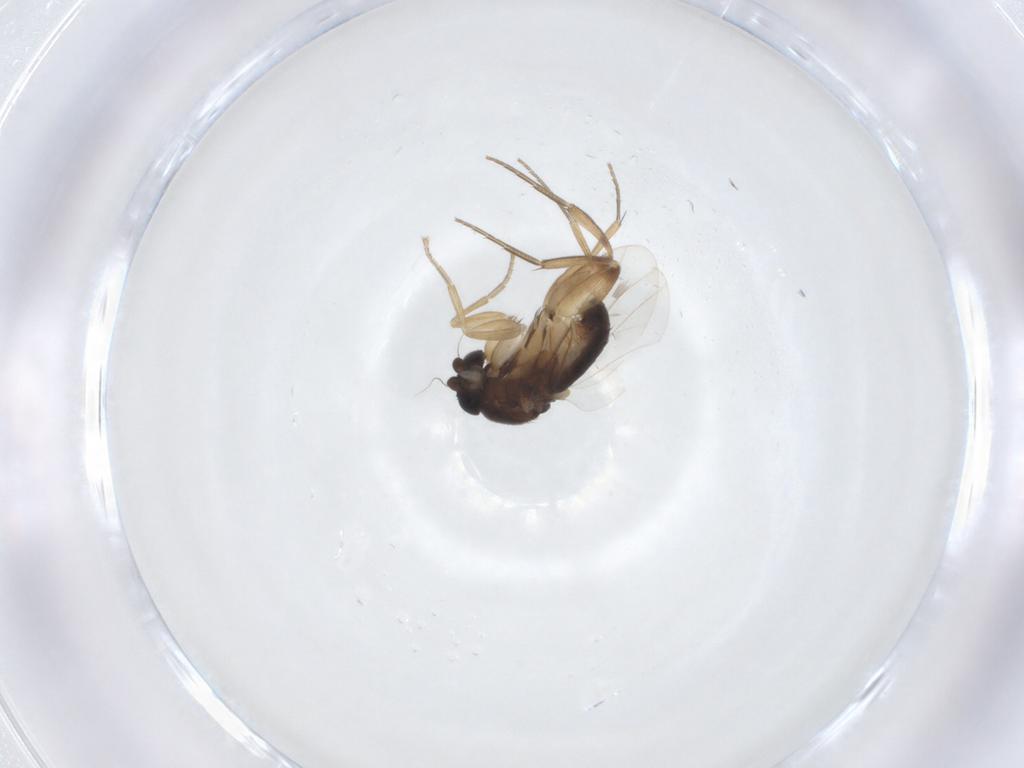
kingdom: Animalia
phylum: Arthropoda
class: Insecta
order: Diptera
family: Phoridae
